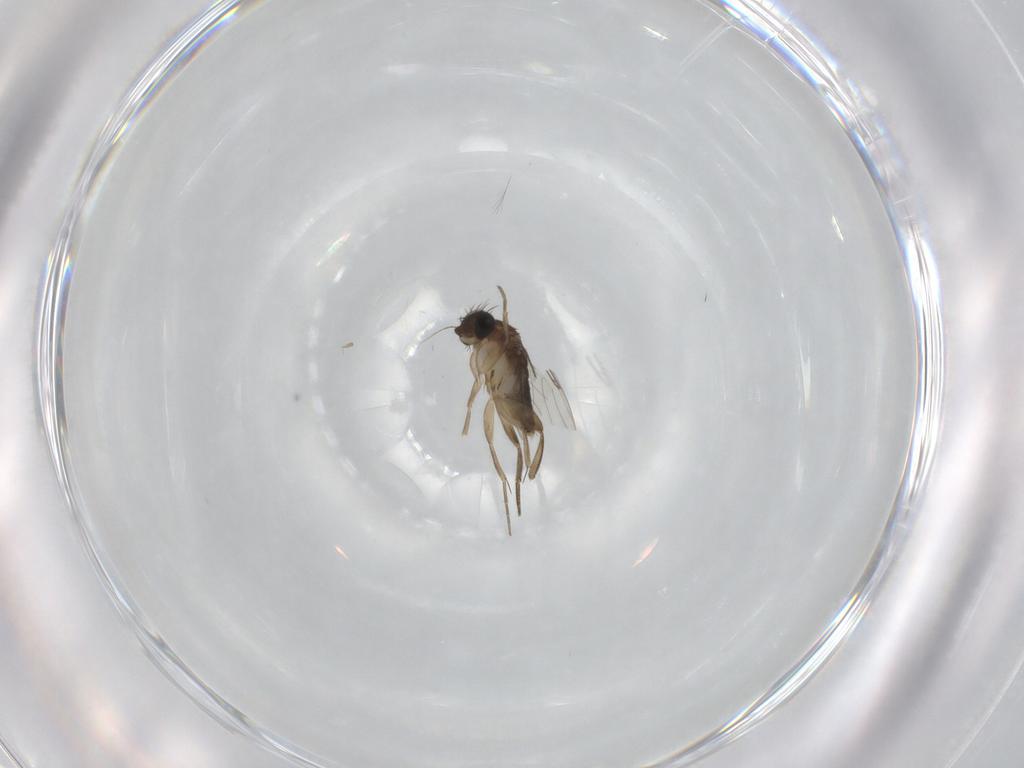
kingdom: Animalia
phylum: Arthropoda
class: Insecta
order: Diptera
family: Phoridae
